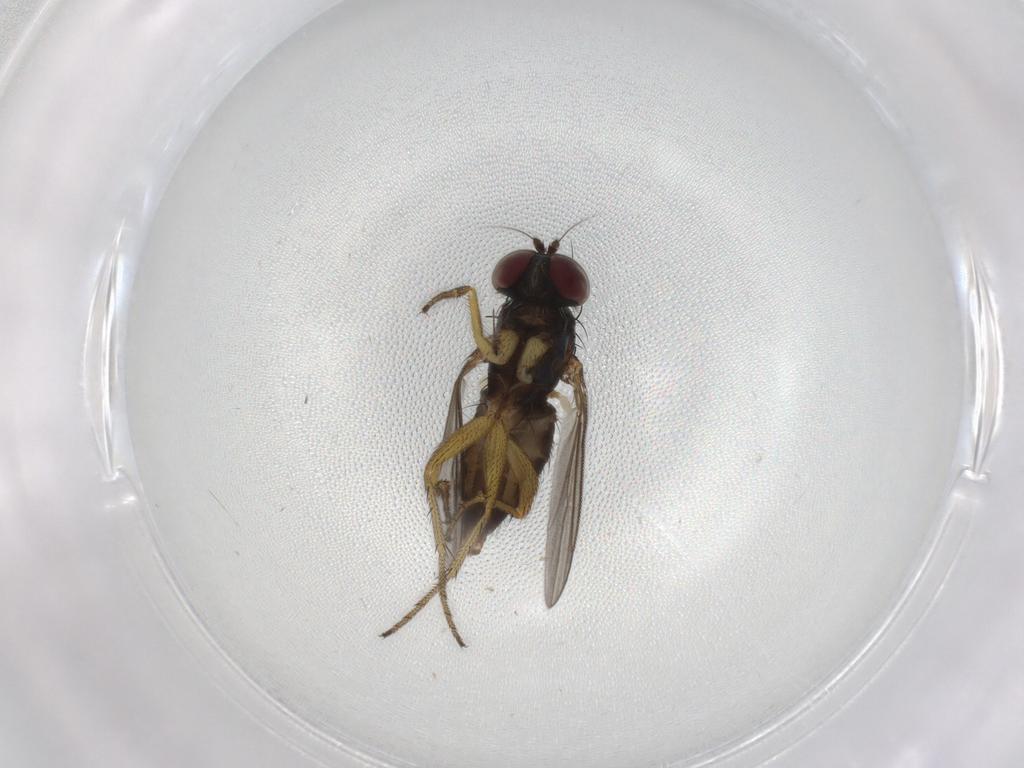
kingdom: Animalia
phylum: Arthropoda
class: Insecta
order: Diptera
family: Dolichopodidae
